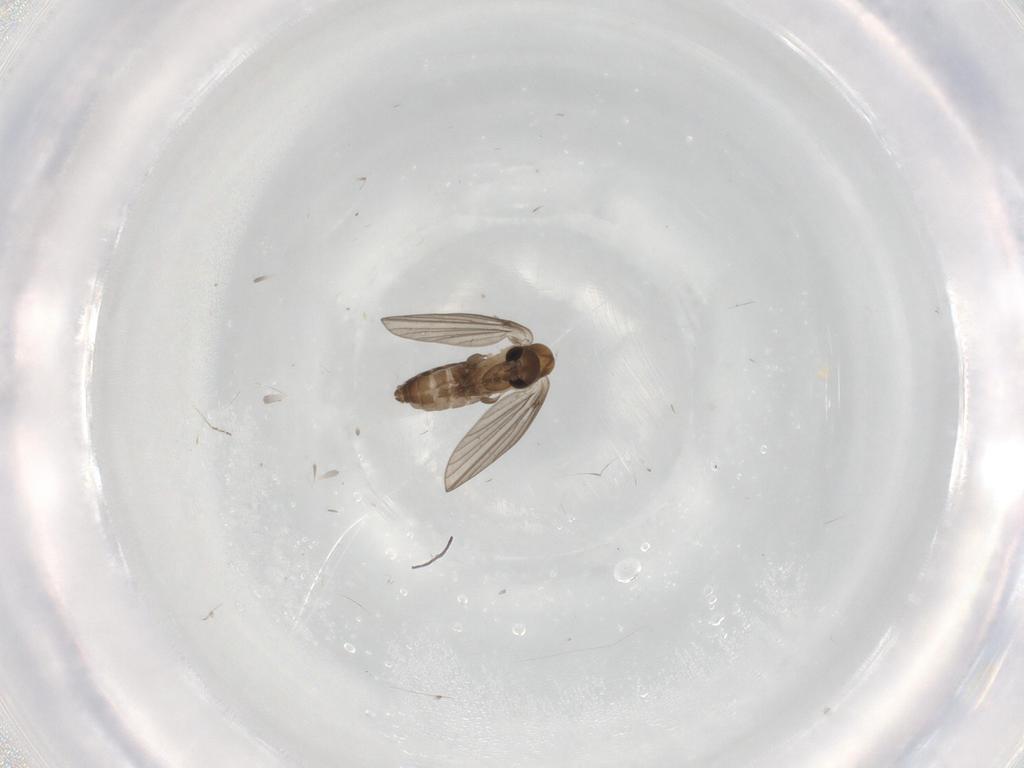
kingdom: Animalia
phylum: Arthropoda
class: Insecta
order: Diptera
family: Psychodidae
